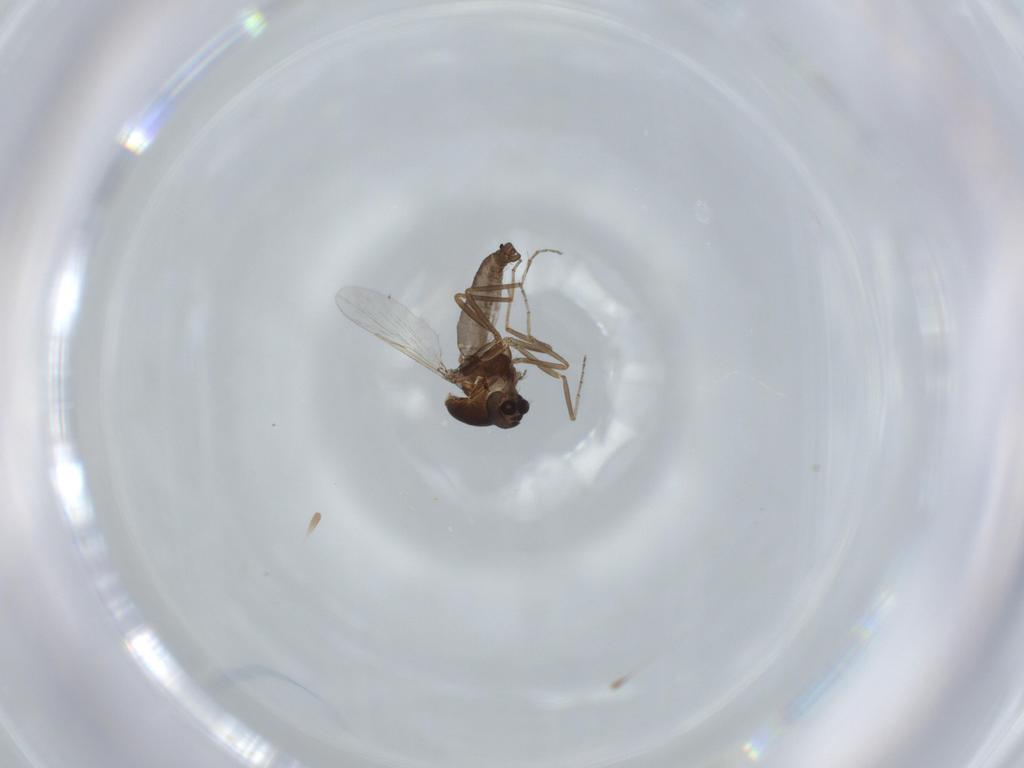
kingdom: Animalia
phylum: Arthropoda
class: Insecta
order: Diptera
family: Ceratopogonidae
